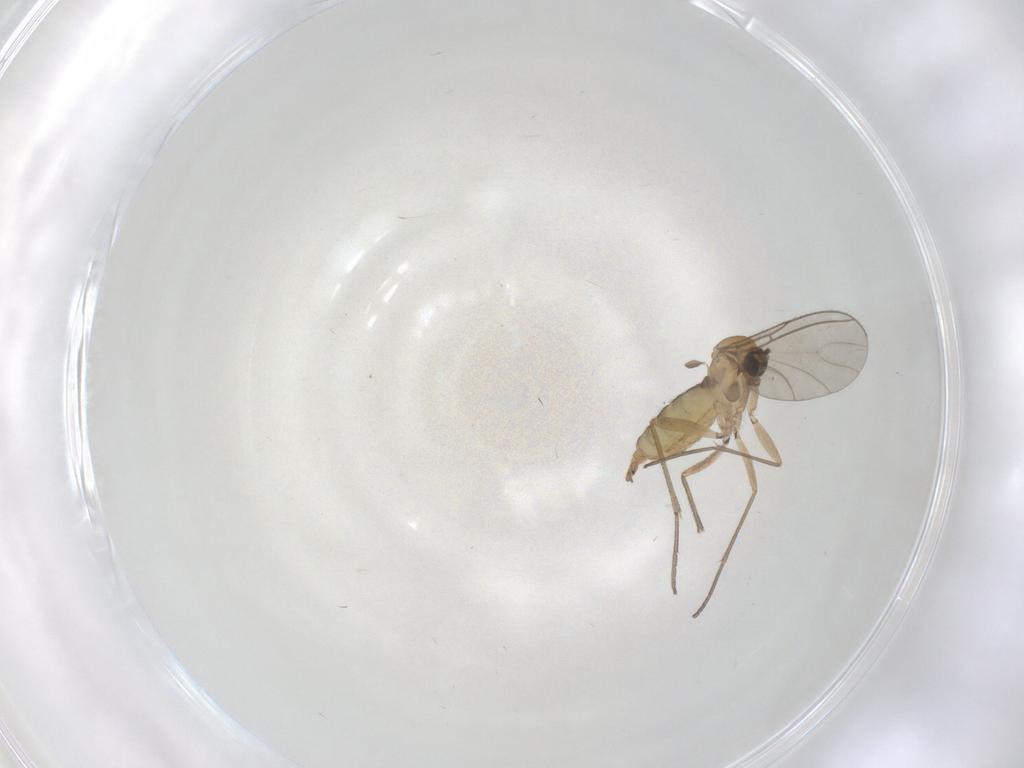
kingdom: Animalia
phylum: Arthropoda
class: Insecta
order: Diptera
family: Sciaridae
